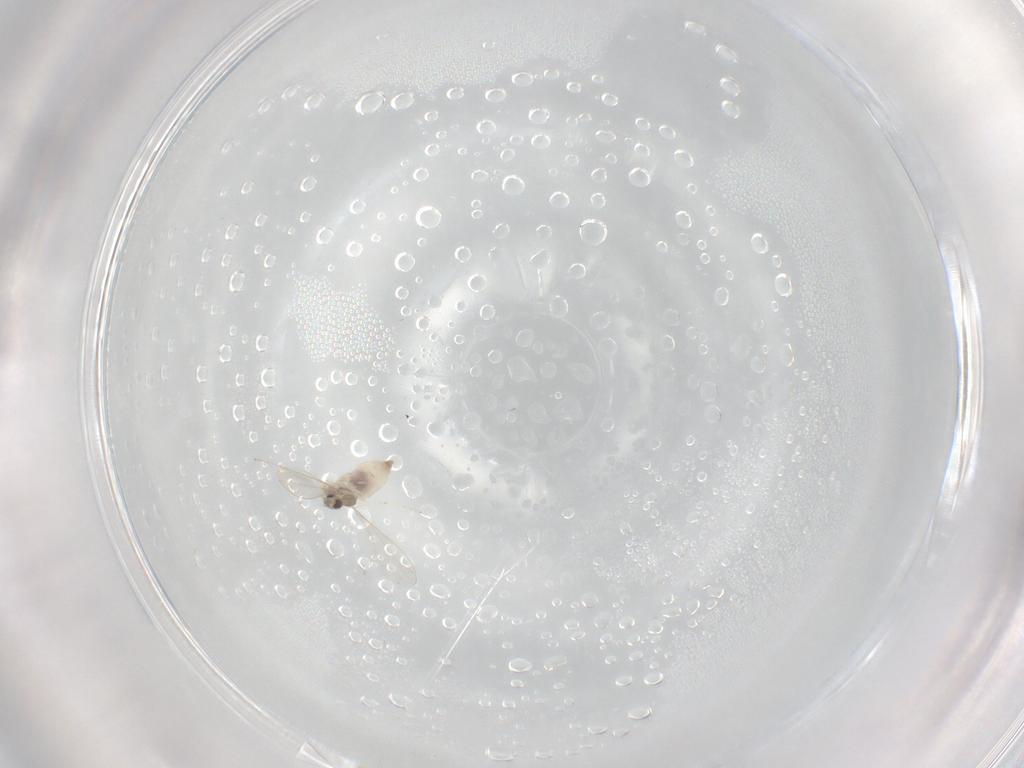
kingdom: Animalia
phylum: Arthropoda
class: Insecta
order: Diptera
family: Cecidomyiidae
